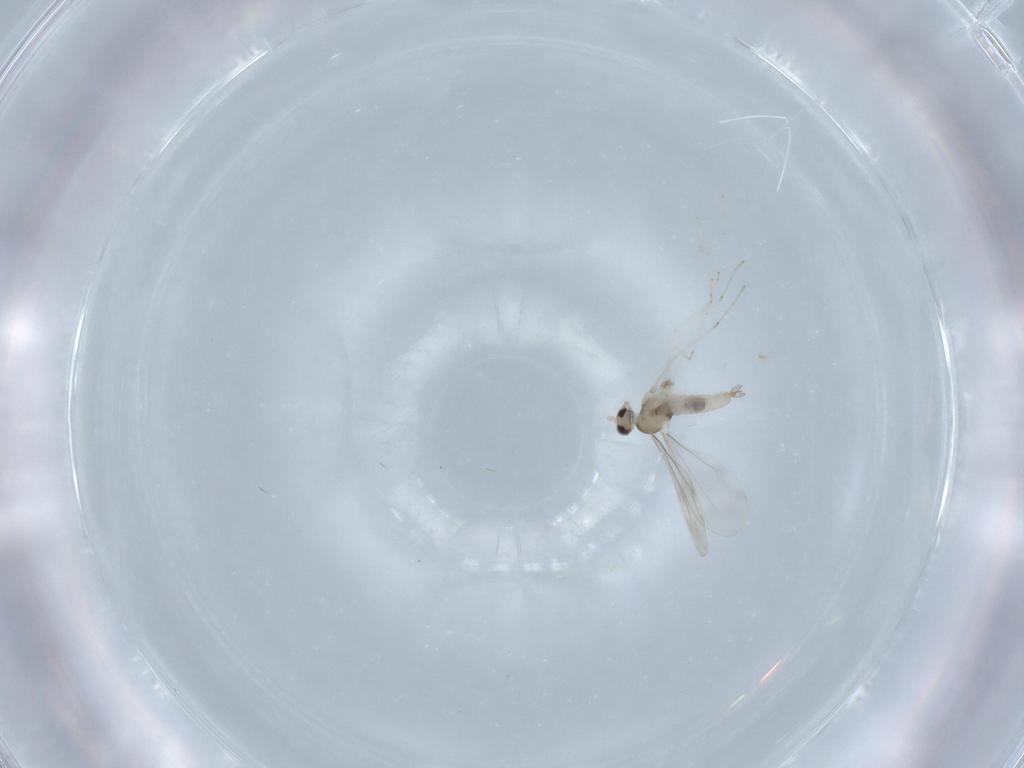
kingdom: Animalia
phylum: Arthropoda
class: Insecta
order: Diptera
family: Cecidomyiidae
